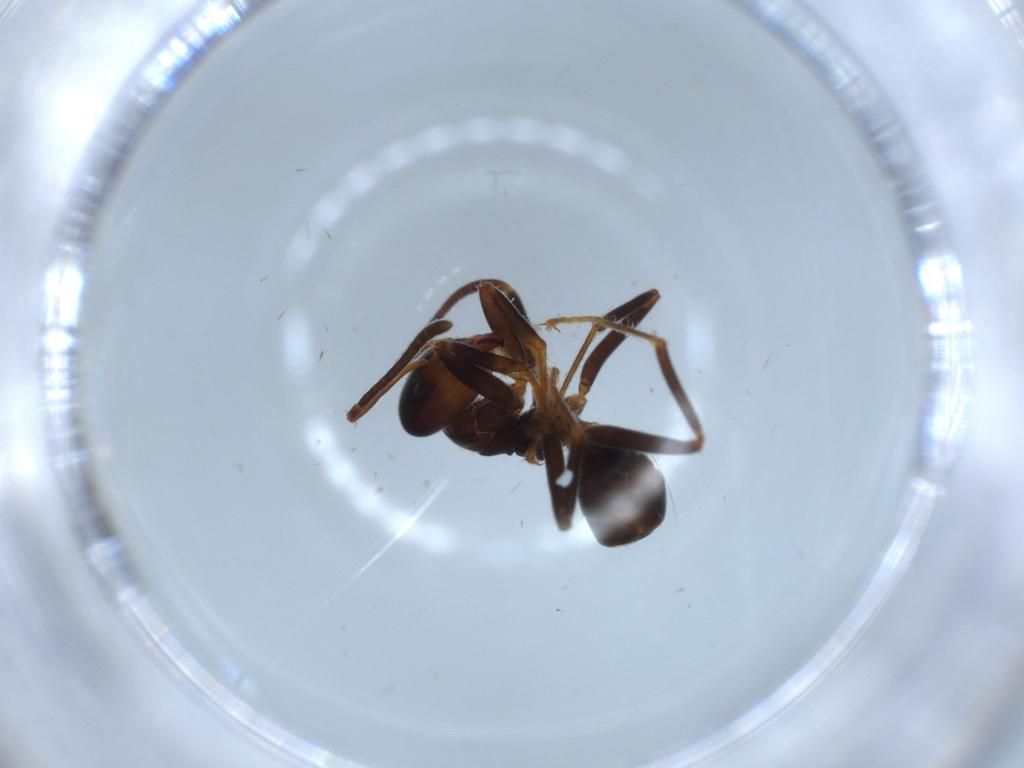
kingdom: Animalia
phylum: Arthropoda
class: Insecta
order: Hymenoptera
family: Formicidae
